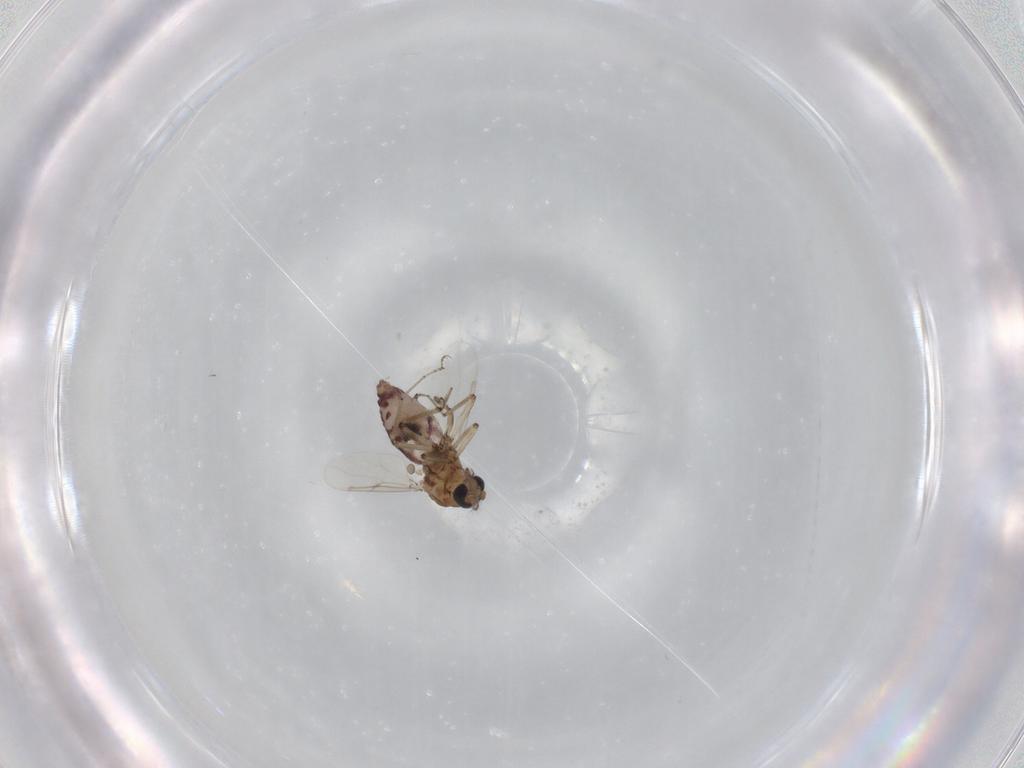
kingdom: Animalia
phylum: Arthropoda
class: Insecta
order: Diptera
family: Ceratopogonidae
